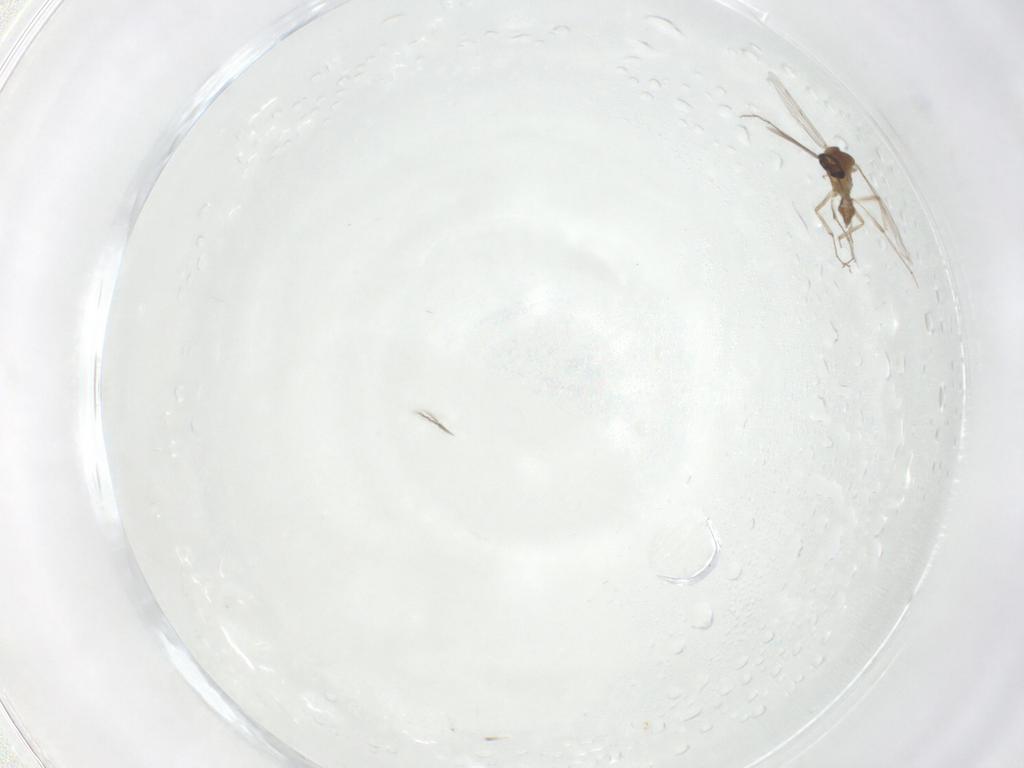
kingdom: Animalia
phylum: Arthropoda
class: Insecta
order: Diptera
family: Ceratopogonidae
